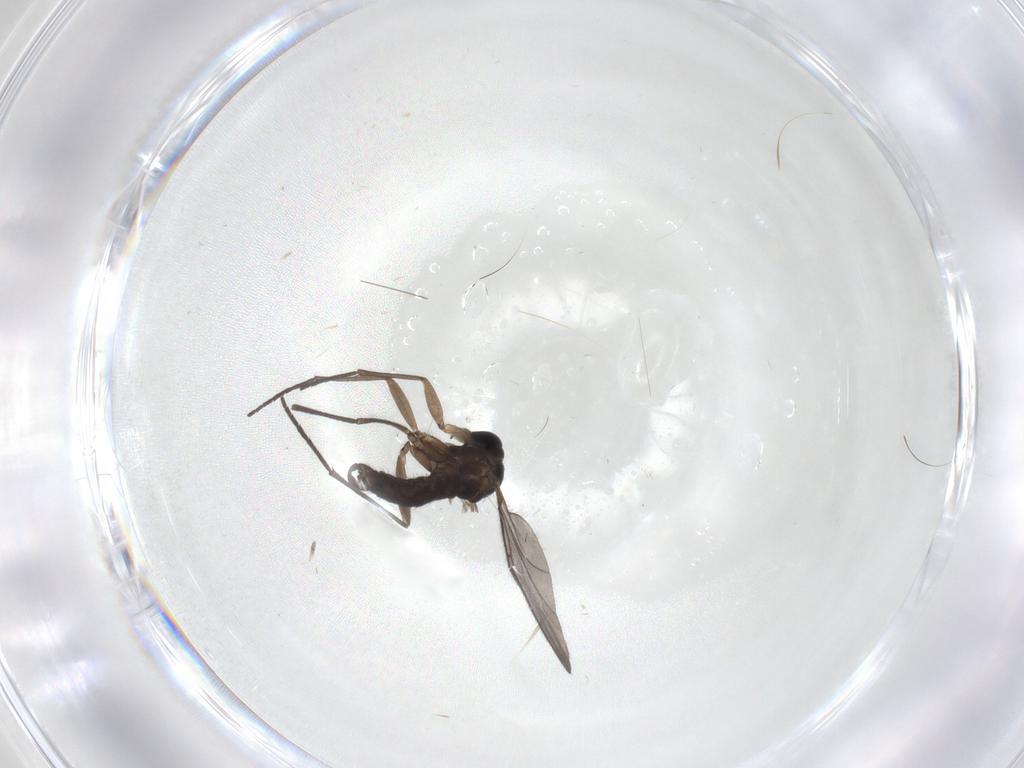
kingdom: Animalia
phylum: Arthropoda
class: Insecta
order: Diptera
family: Sciaridae
